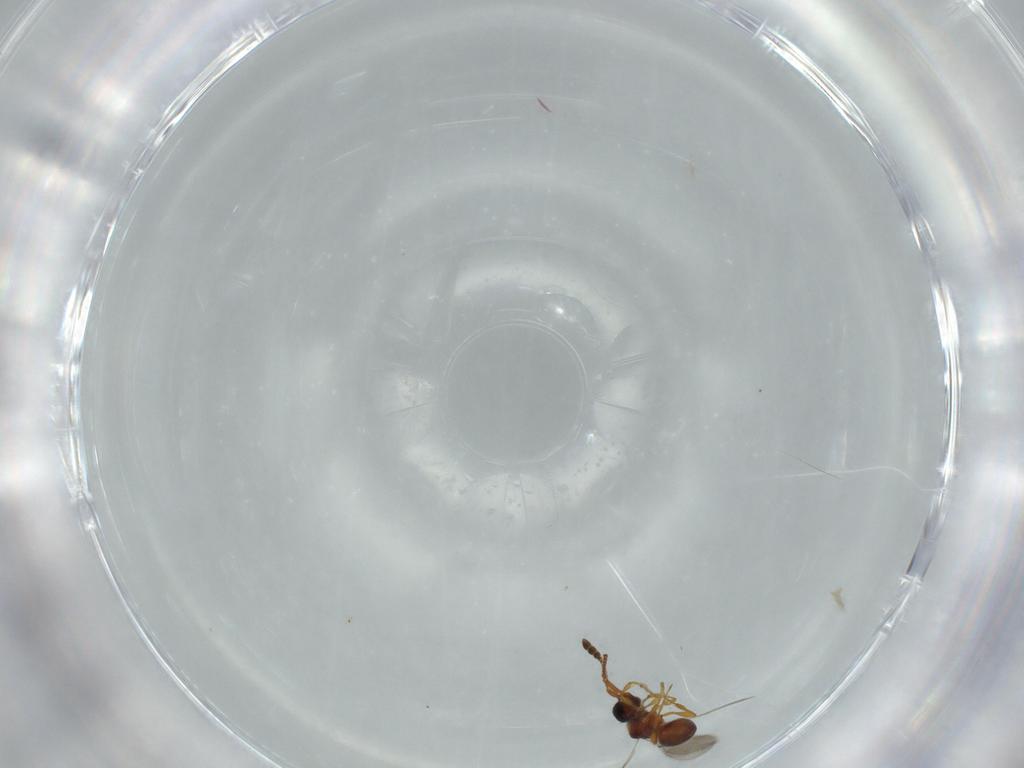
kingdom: Animalia
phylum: Arthropoda
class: Insecta
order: Hymenoptera
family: Diapriidae
